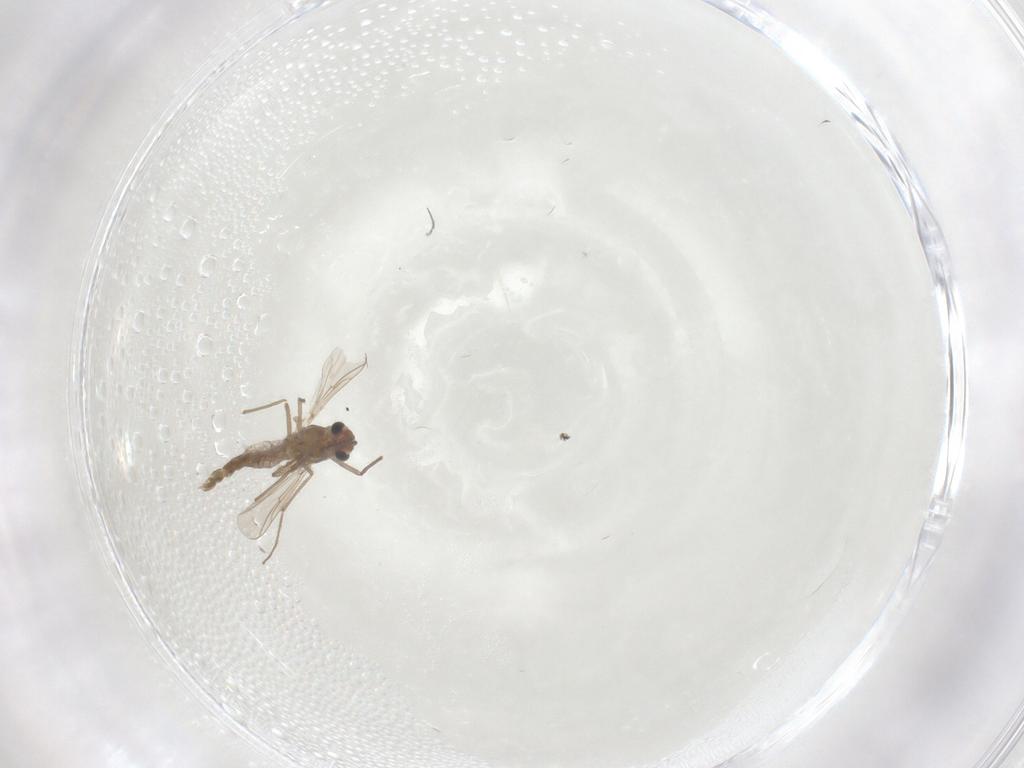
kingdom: Animalia
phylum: Arthropoda
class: Insecta
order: Diptera
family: Chironomidae
